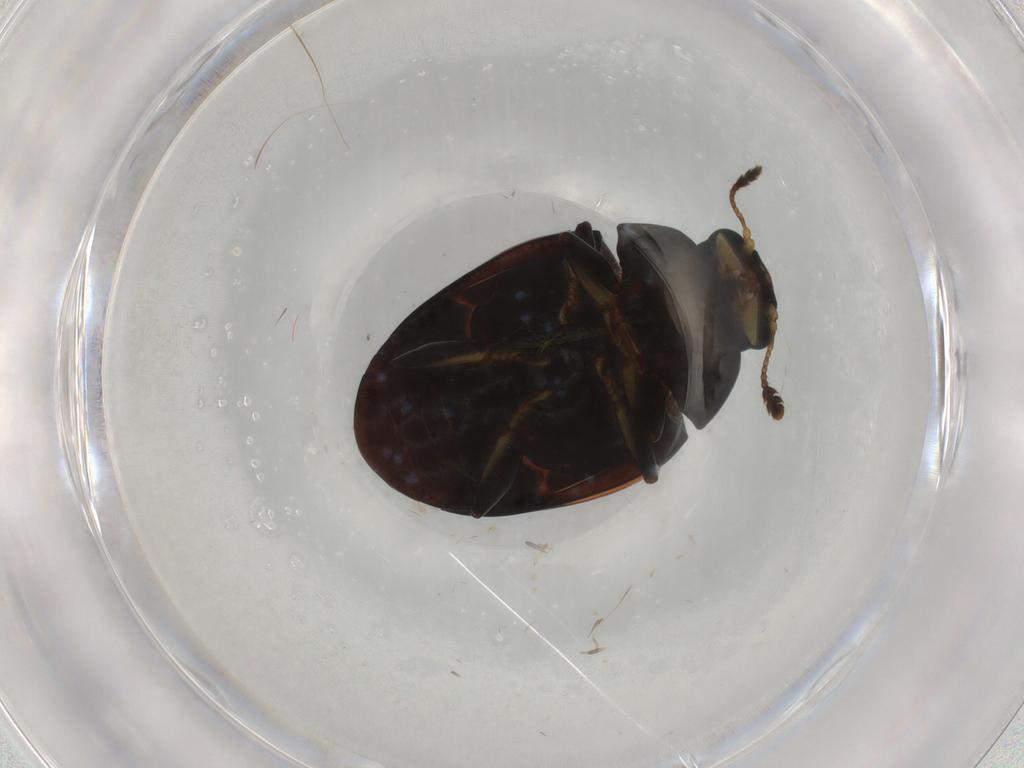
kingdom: Animalia
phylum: Arthropoda
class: Insecta
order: Coleoptera
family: Erotylidae
